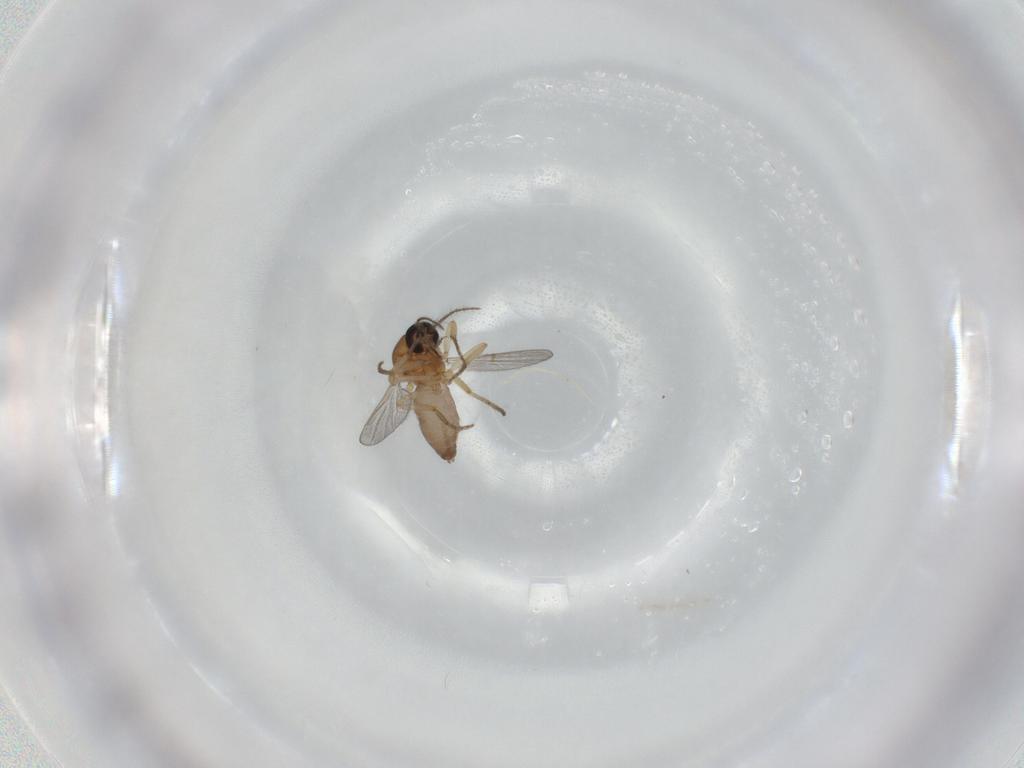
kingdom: Animalia
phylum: Arthropoda
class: Insecta
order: Diptera
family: Ceratopogonidae
